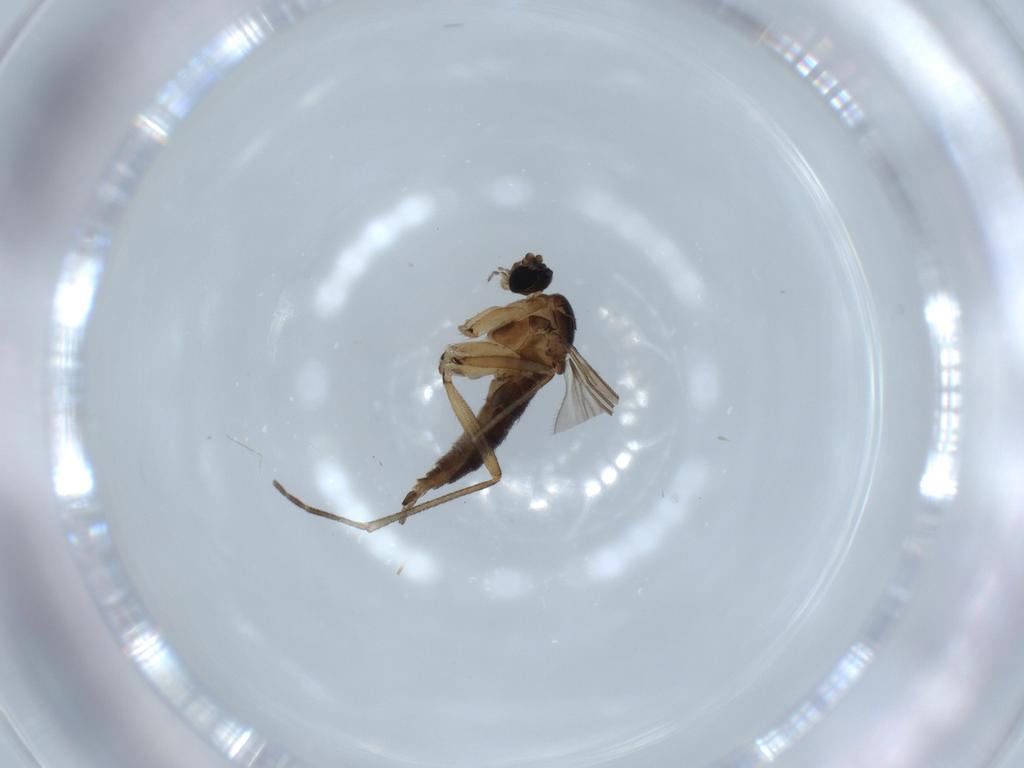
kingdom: Animalia
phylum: Arthropoda
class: Insecta
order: Diptera
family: Sciaridae
